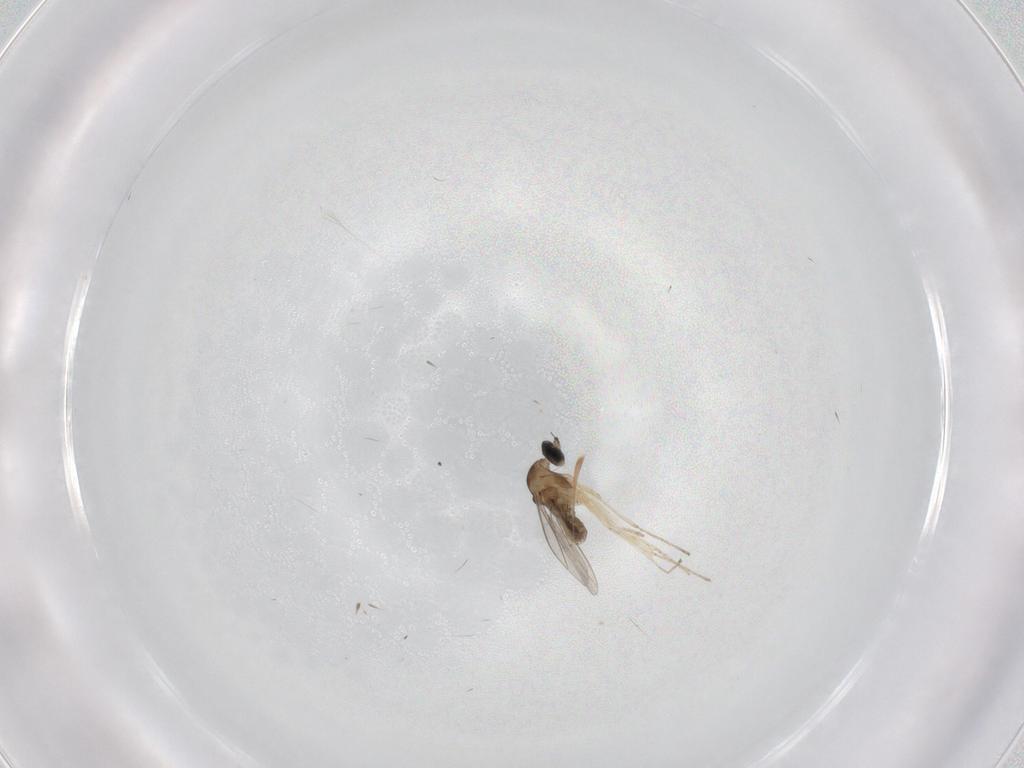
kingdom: Animalia
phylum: Arthropoda
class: Insecta
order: Diptera
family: Cecidomyiidae
